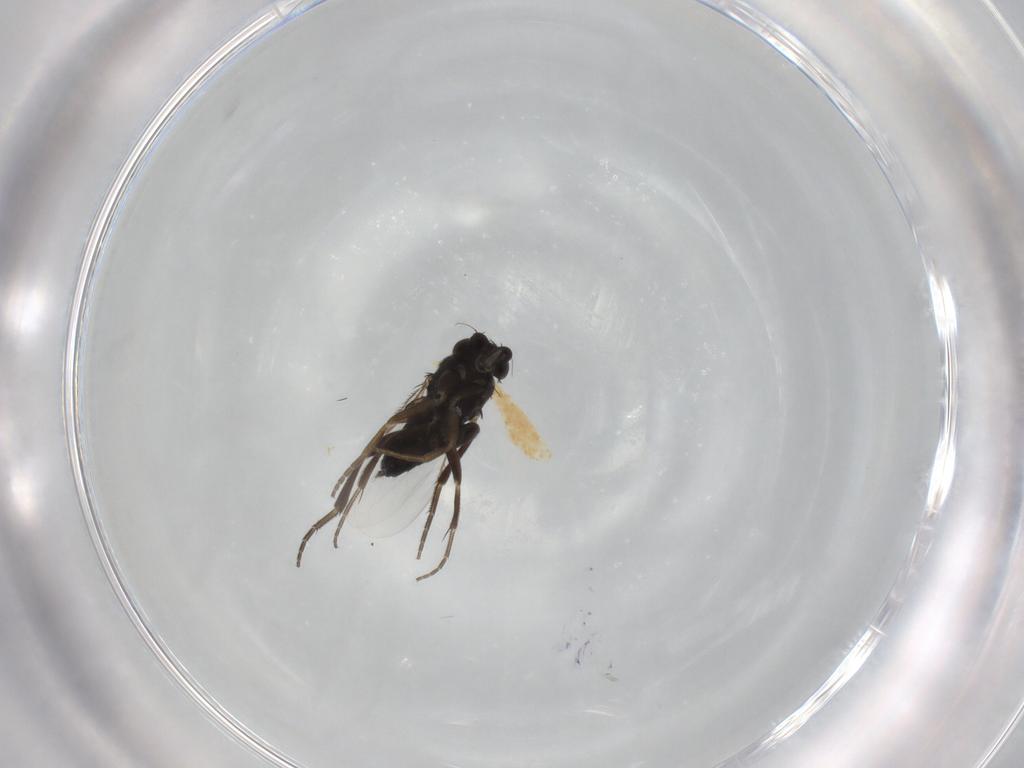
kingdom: Animalia
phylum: Arthropoda
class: Insecta
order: Diptera
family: Phoridae
